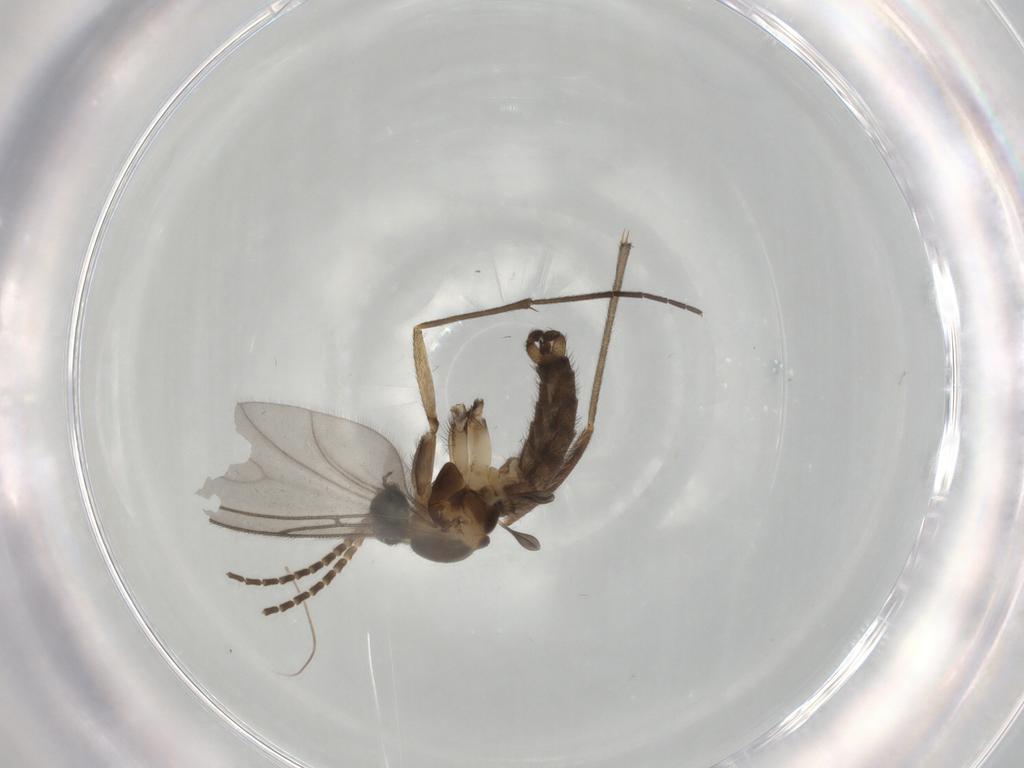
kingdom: Animalia
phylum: Arthropoda
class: Insecta
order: Diptera
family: Sciaridae
